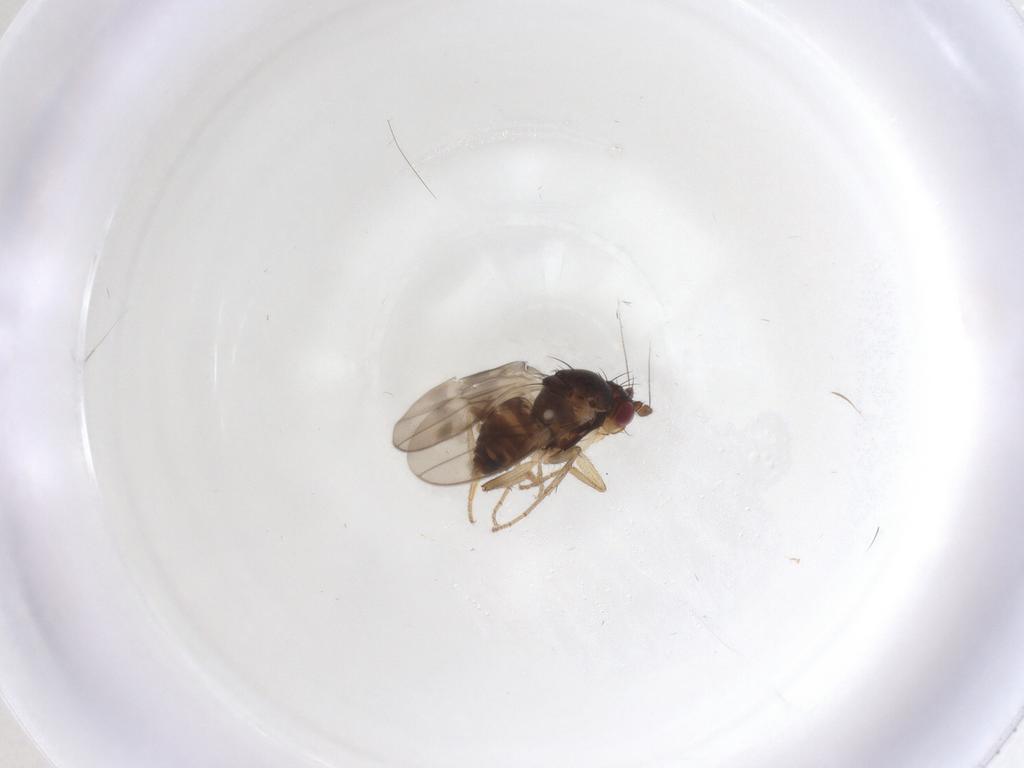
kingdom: Animalia
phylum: Arthropoda
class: Insecta
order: Diptera
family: Sphaeroceridae
